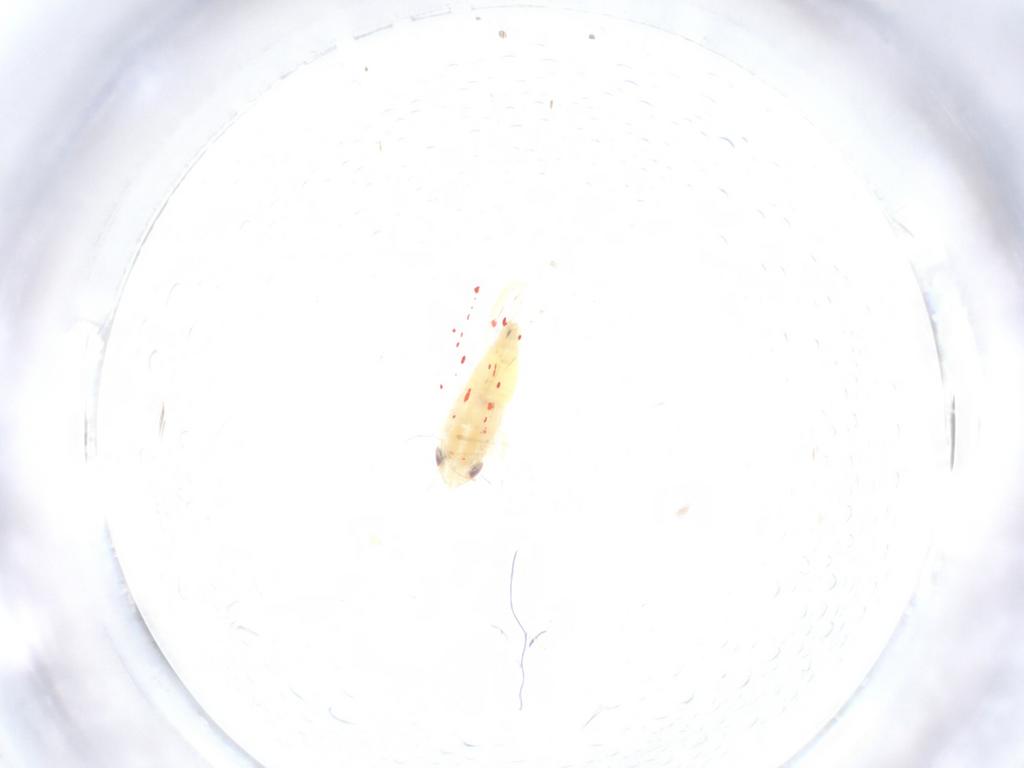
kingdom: Animalia
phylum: Arthropoda
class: Insecta
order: Hemiptera
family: Cicadellidae
